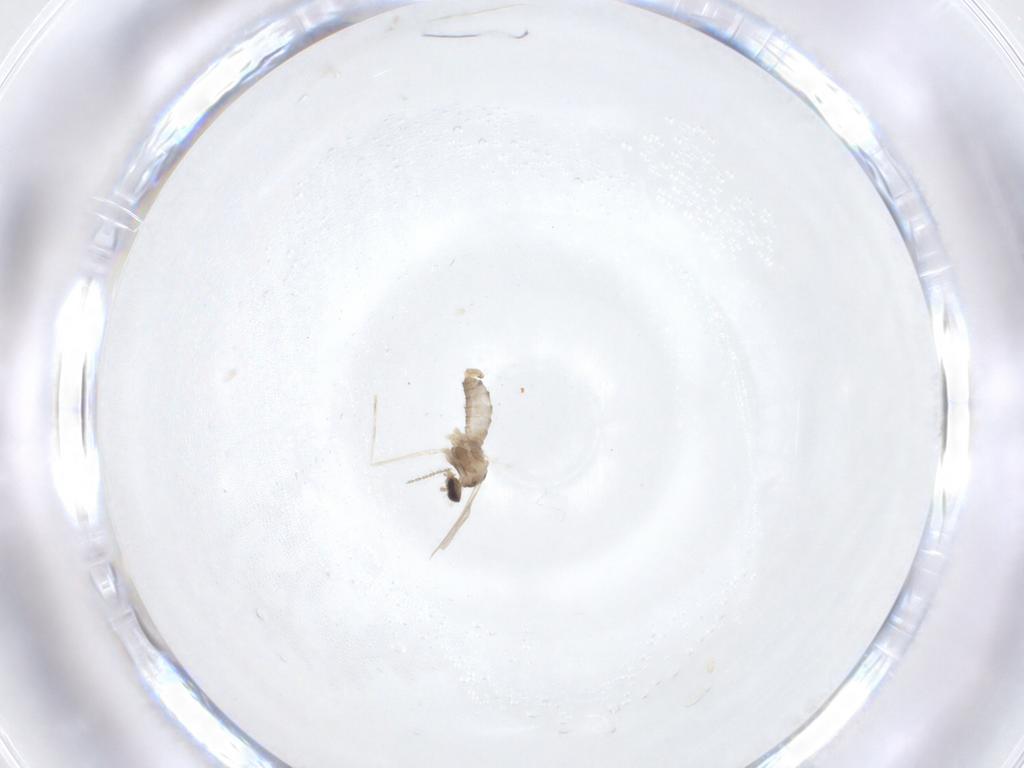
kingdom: Animalia
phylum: Arthropoda
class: Insecta
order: Diptera
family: Cecidomyiidae
